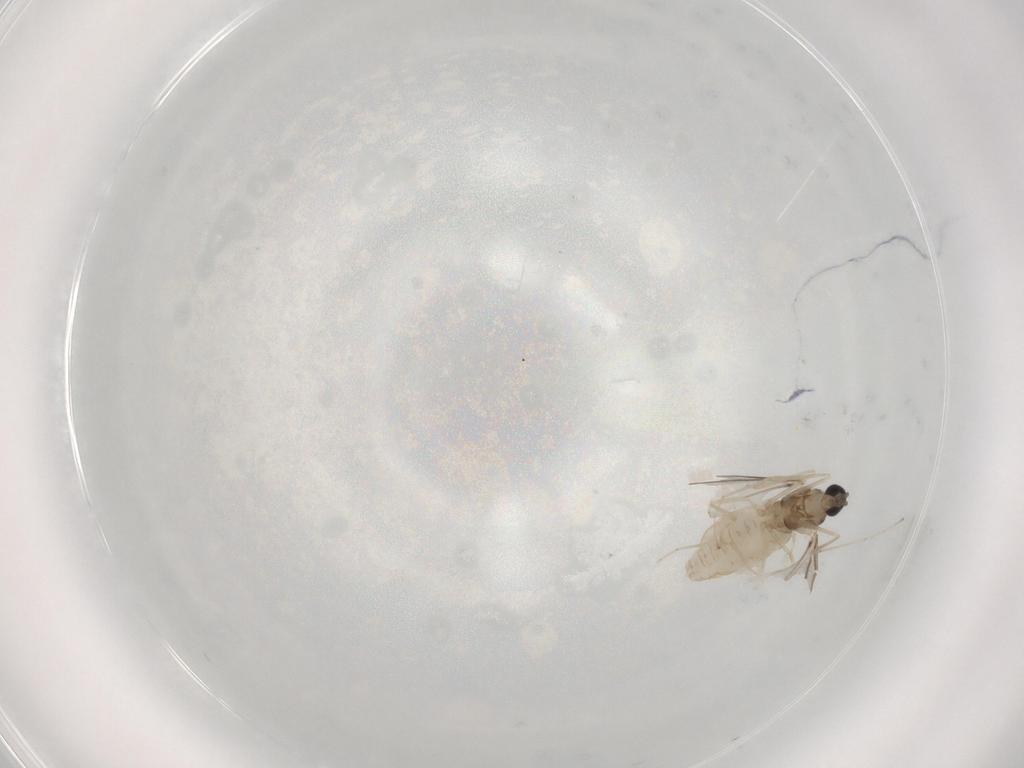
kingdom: Animalia
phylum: Arthropoda
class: Insecta
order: Diptera
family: Cecidomyiidae
